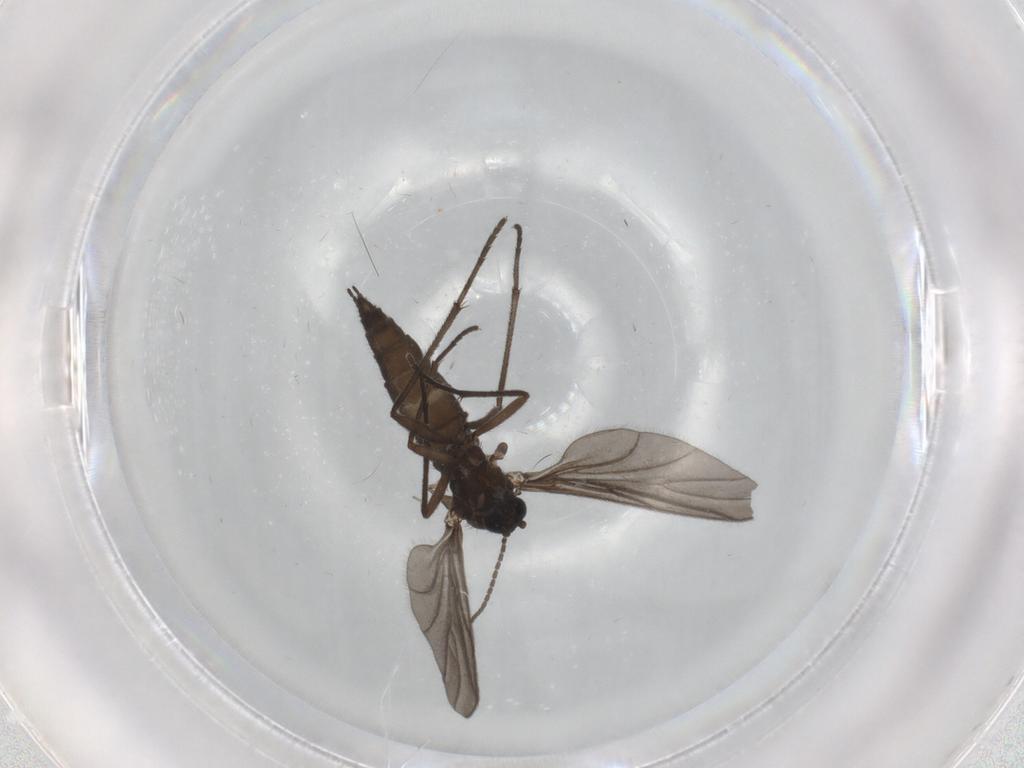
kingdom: Animalia
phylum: Arthropoda
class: Insecta
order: Diptera
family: Sciaridae
